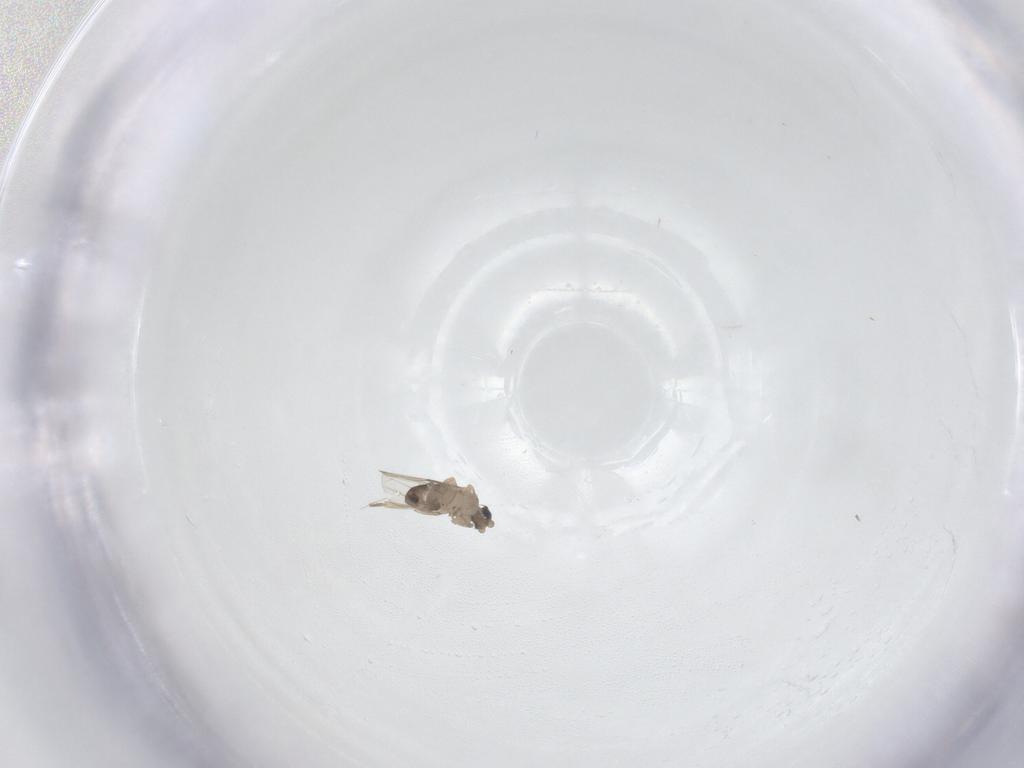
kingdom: Animalia
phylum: Arthropoda
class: Insecta
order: Diptera
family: Phoridae
